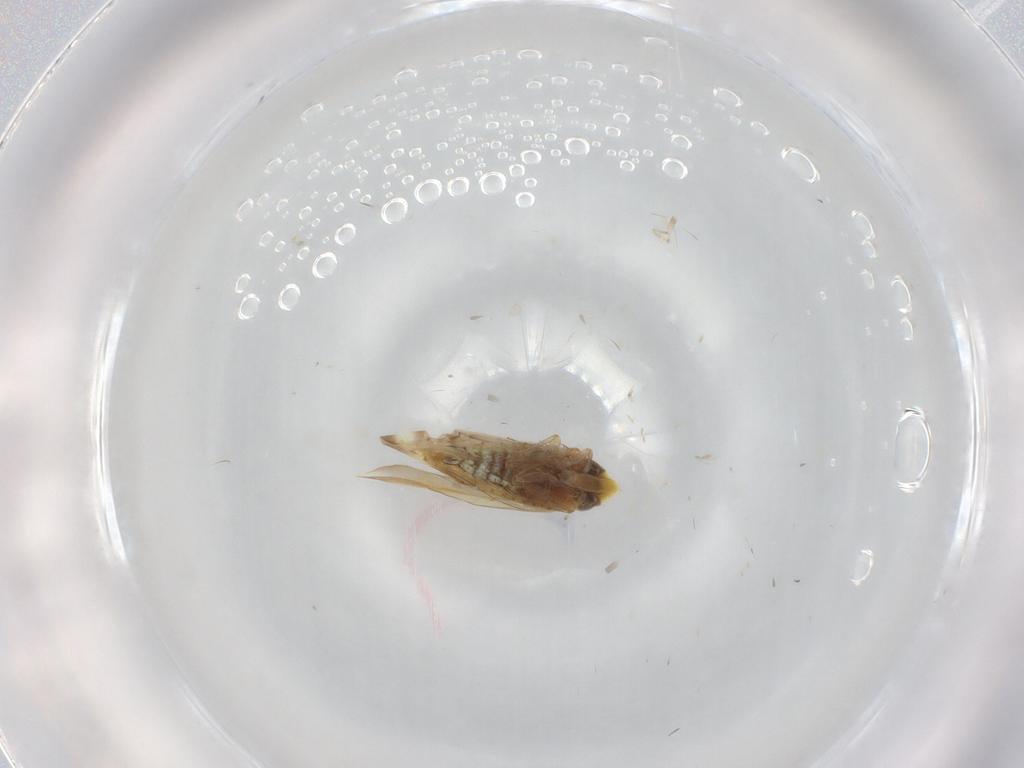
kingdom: Animalia
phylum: Arthropoda
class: Insecta
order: Hemiptera
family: Cicadellidae
